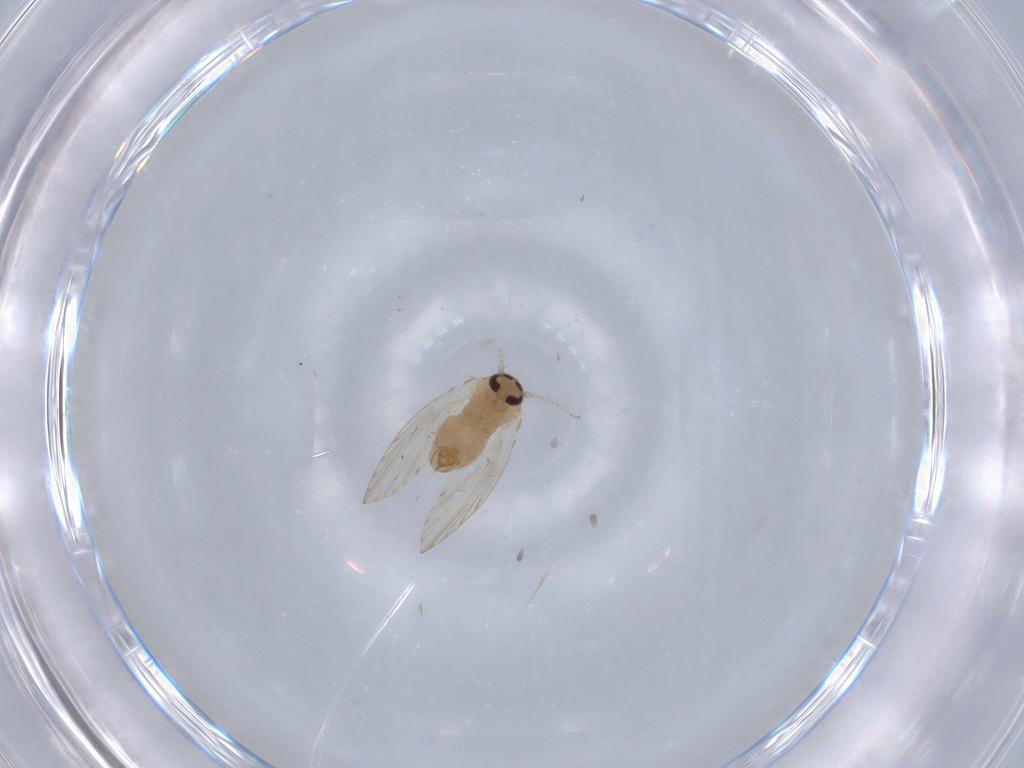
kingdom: Animalia
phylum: Arthropoda
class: Insecta
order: Diptera
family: Psychodidae
